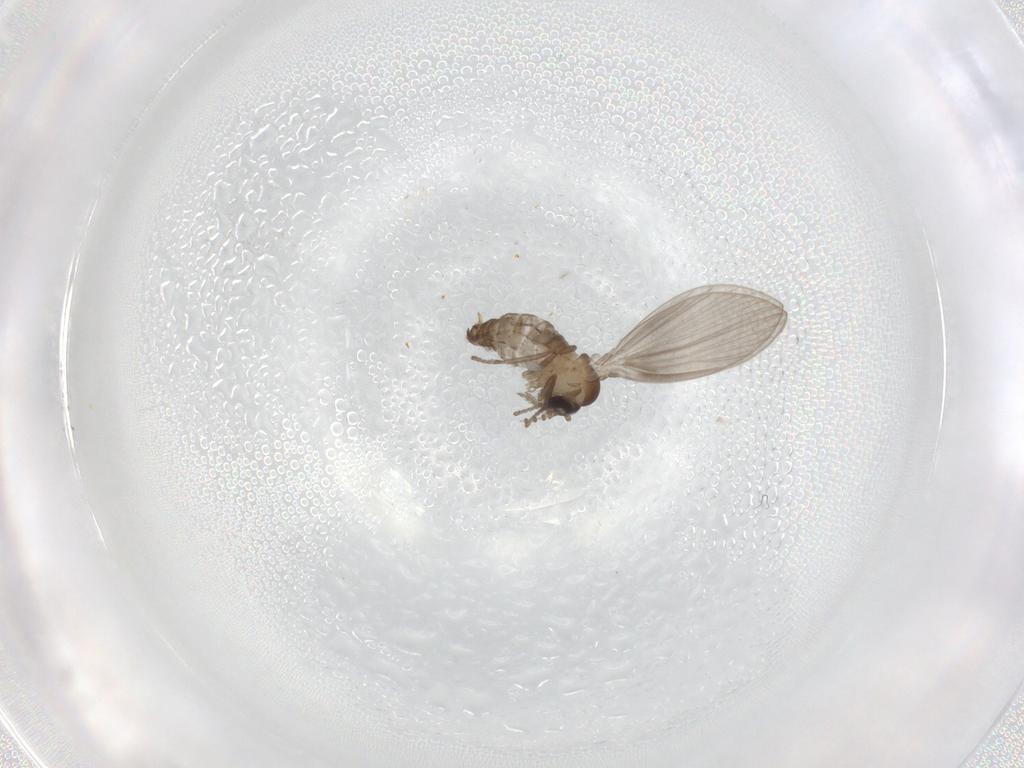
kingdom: Animalia
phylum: Arthropoda
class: Insecta
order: Diptera
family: Psychodidae
